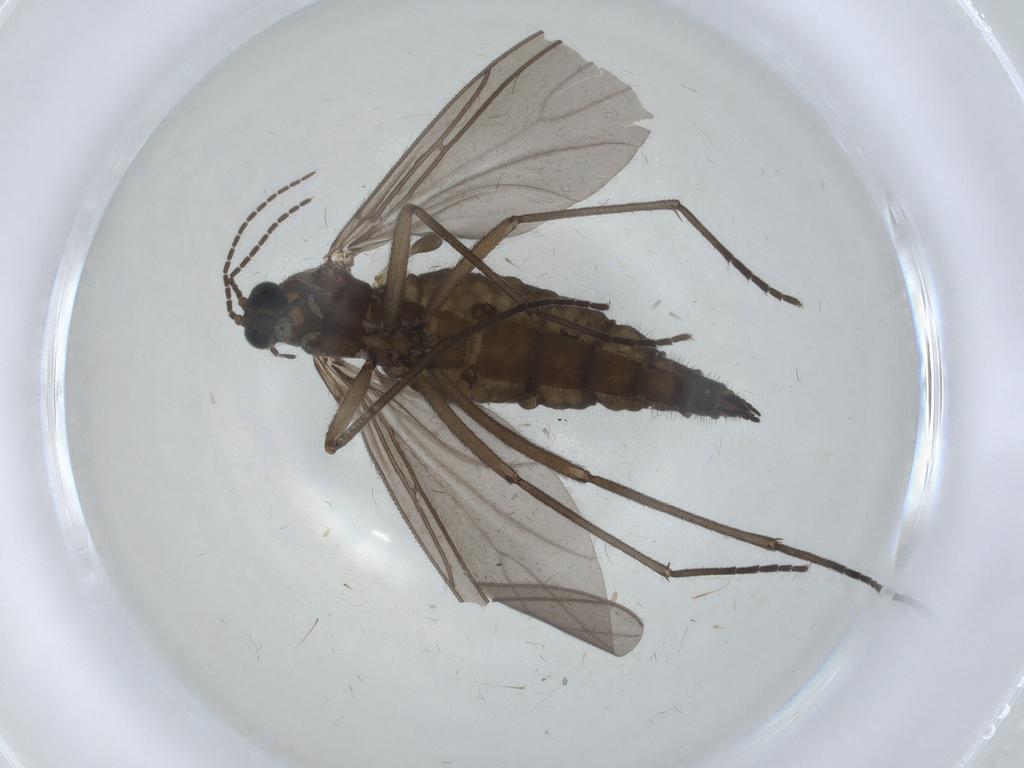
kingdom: Animalia
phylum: Arthropoda
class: Insecta
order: Diptera
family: Sciaridae
